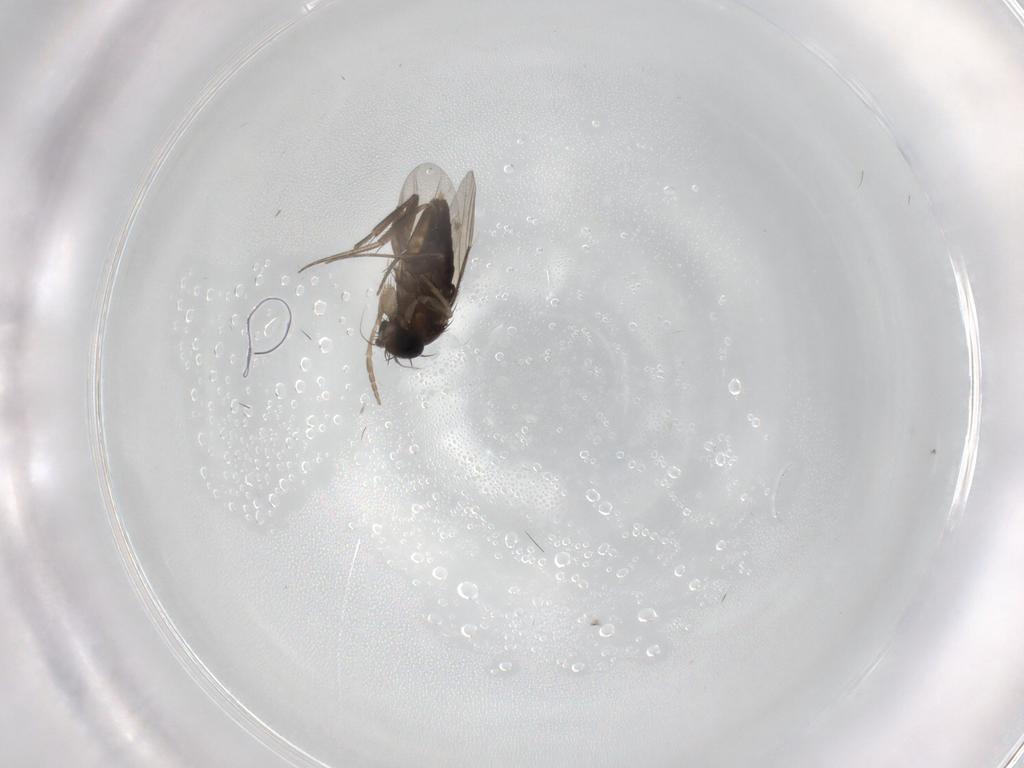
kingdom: Animalia
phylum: Arthropoda
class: Insecta
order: Diptera
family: Phoridae
